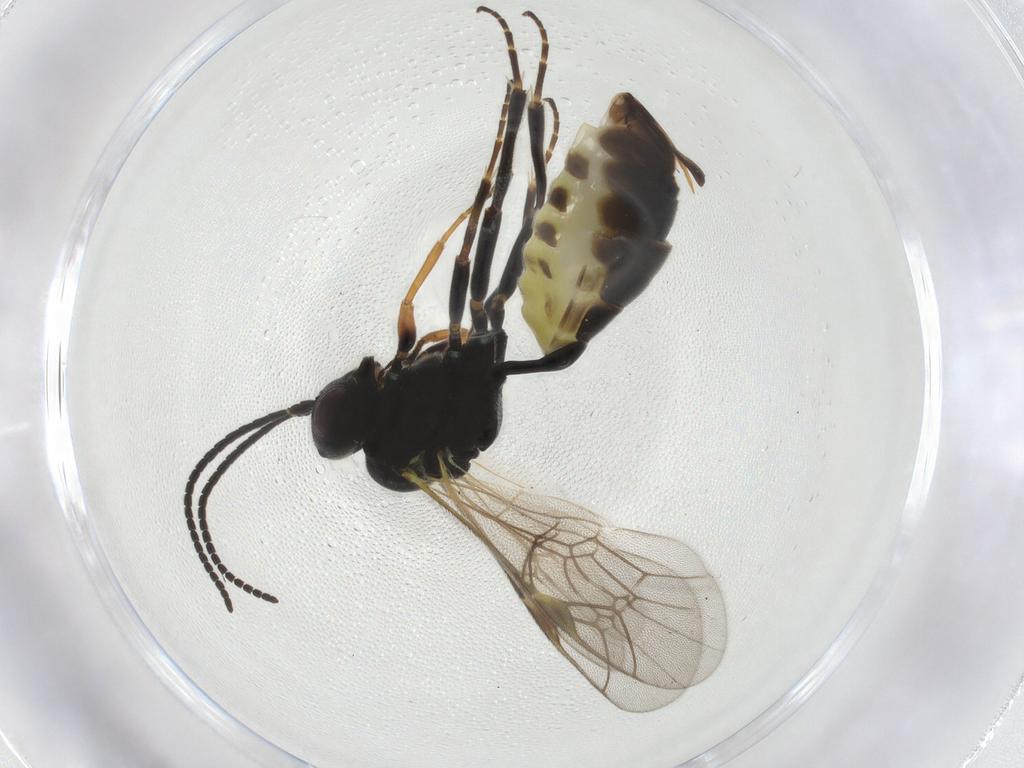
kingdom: Animalia
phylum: Arthropoda
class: Insecta
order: Hymenoptera
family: Ichneumonidae
